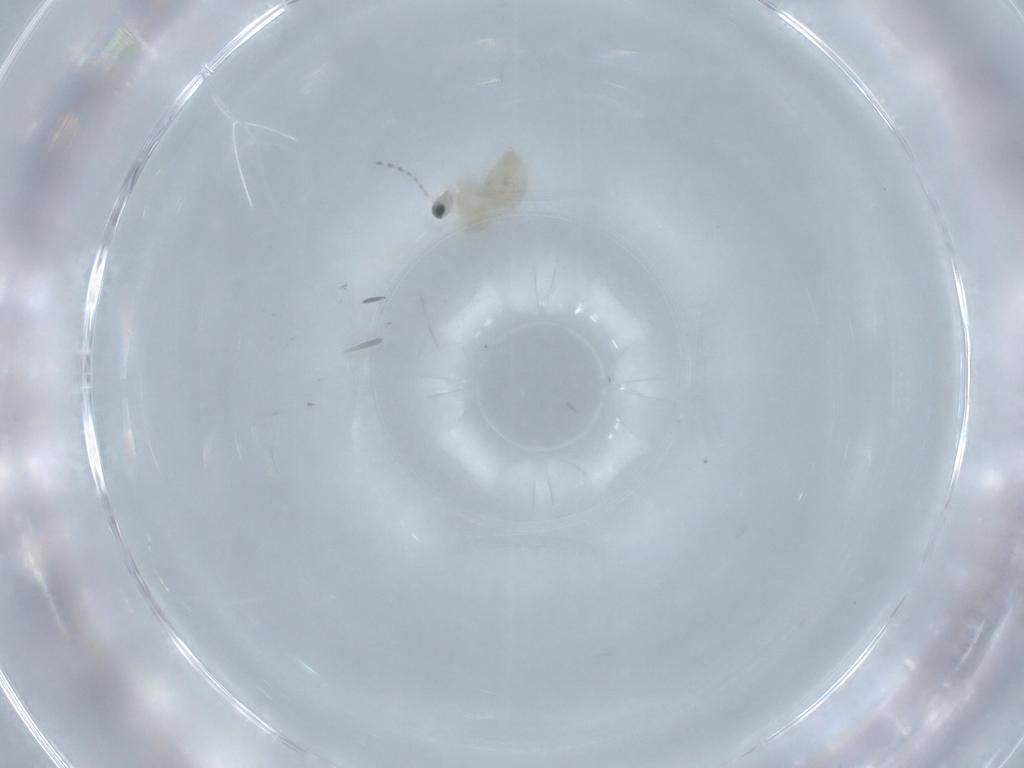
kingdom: Animalia
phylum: Arthropoda
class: Insecta
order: Diptera
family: Cecidomyiidae
